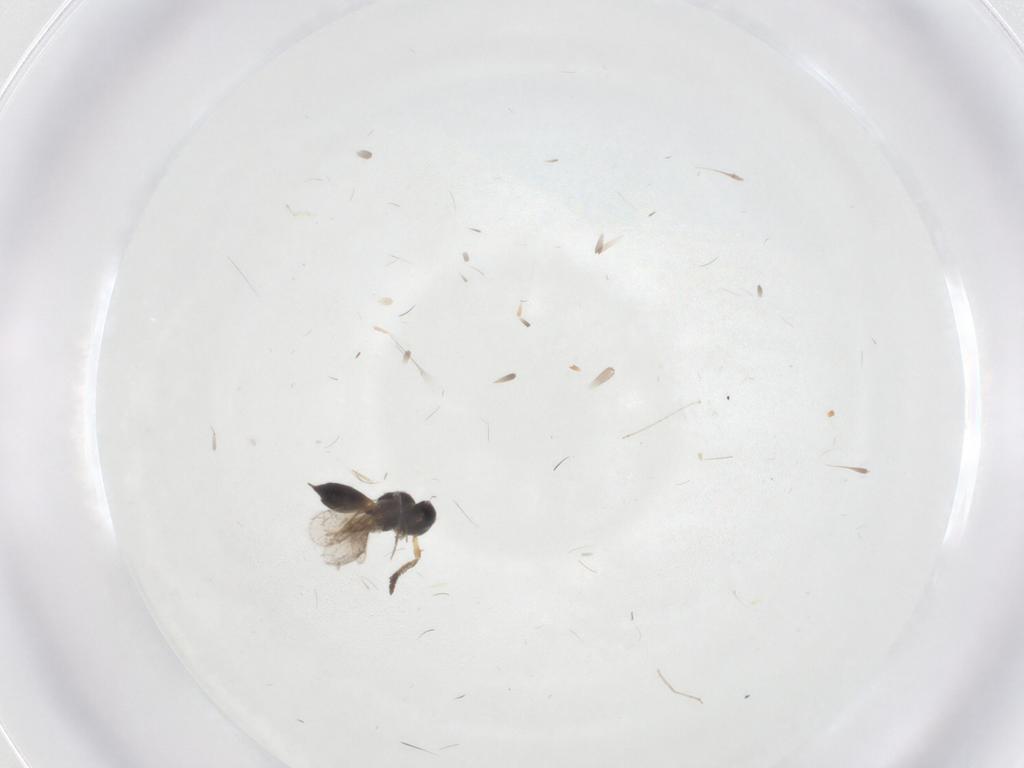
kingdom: Animalia
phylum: Arthropoda
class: Insecta
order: Hymenoptera
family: Scelionidae
